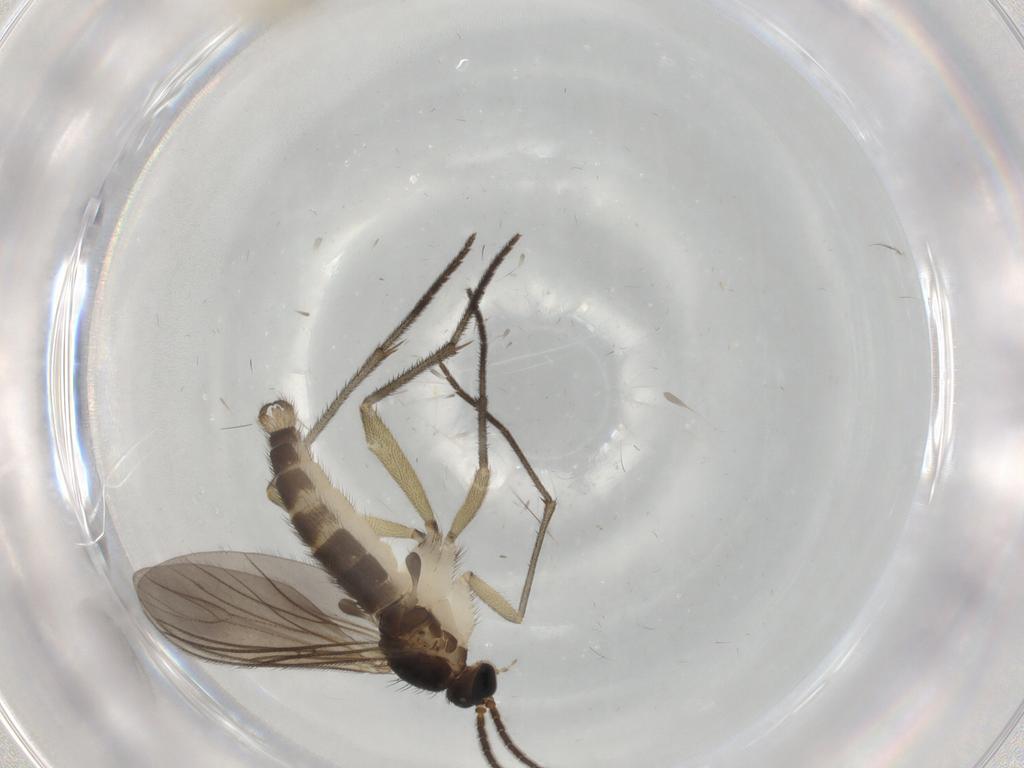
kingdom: Animalia
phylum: Arthropoda
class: Insecta
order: Diptera
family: Sciaridae
